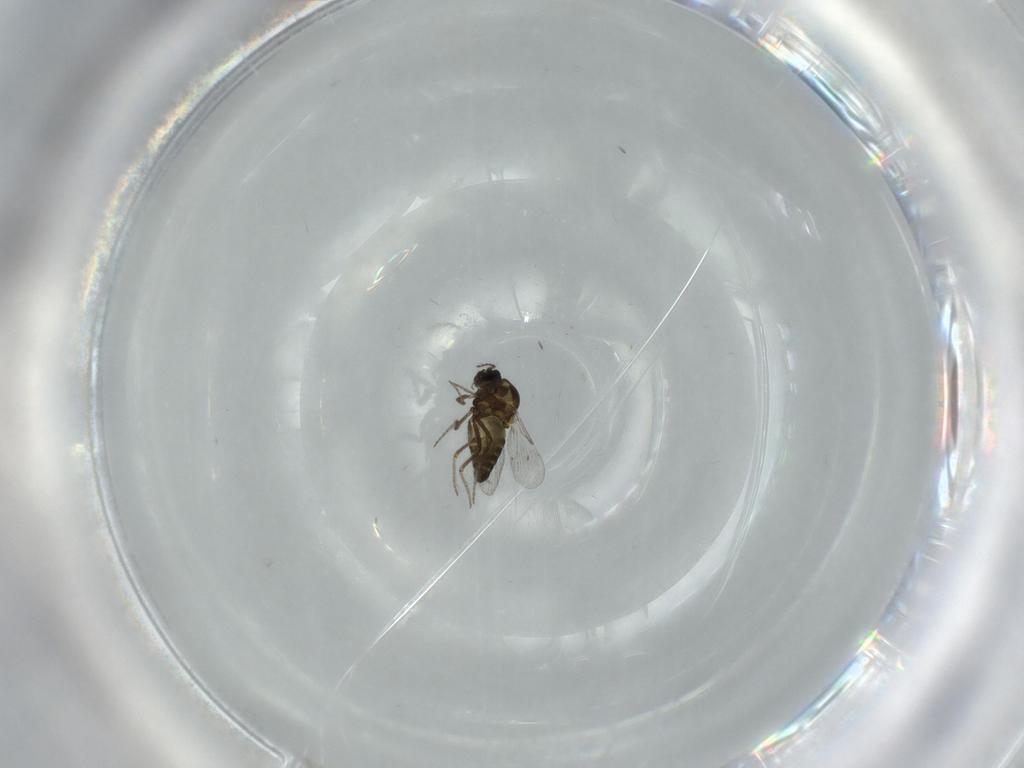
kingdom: Animalia
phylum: Arthropoda
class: Insecta
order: Diptera
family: Ceratopogonidae
